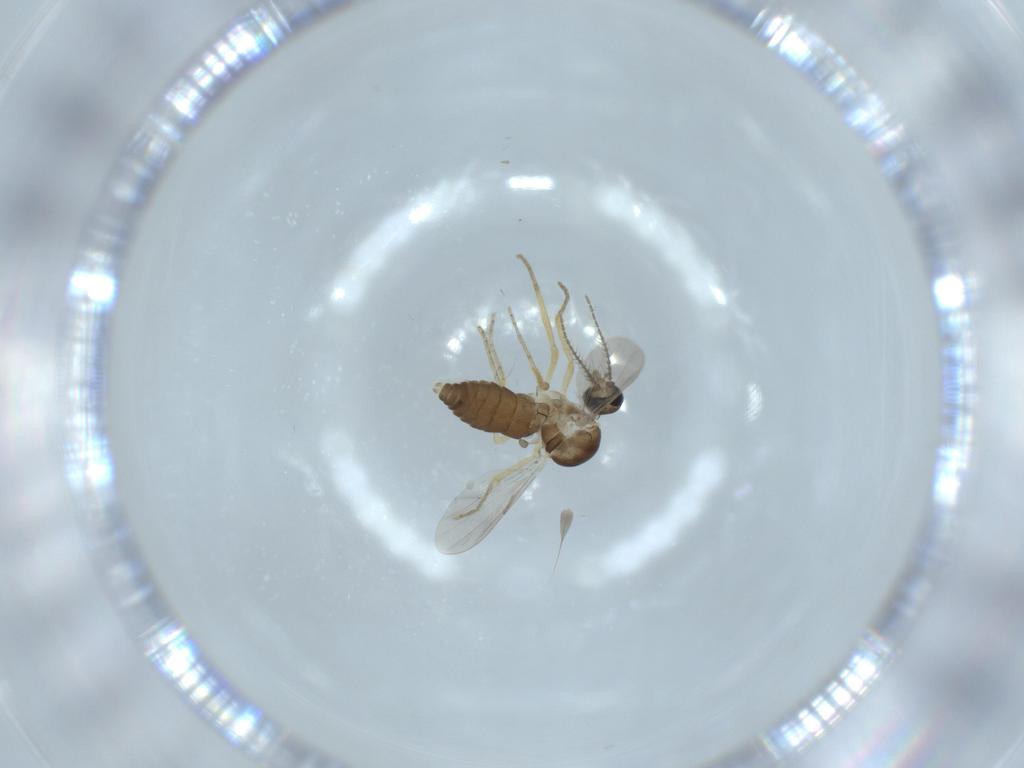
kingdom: Animalia
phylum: Arthropoda
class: Insecta
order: Diptera
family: Ceratopogonidae
